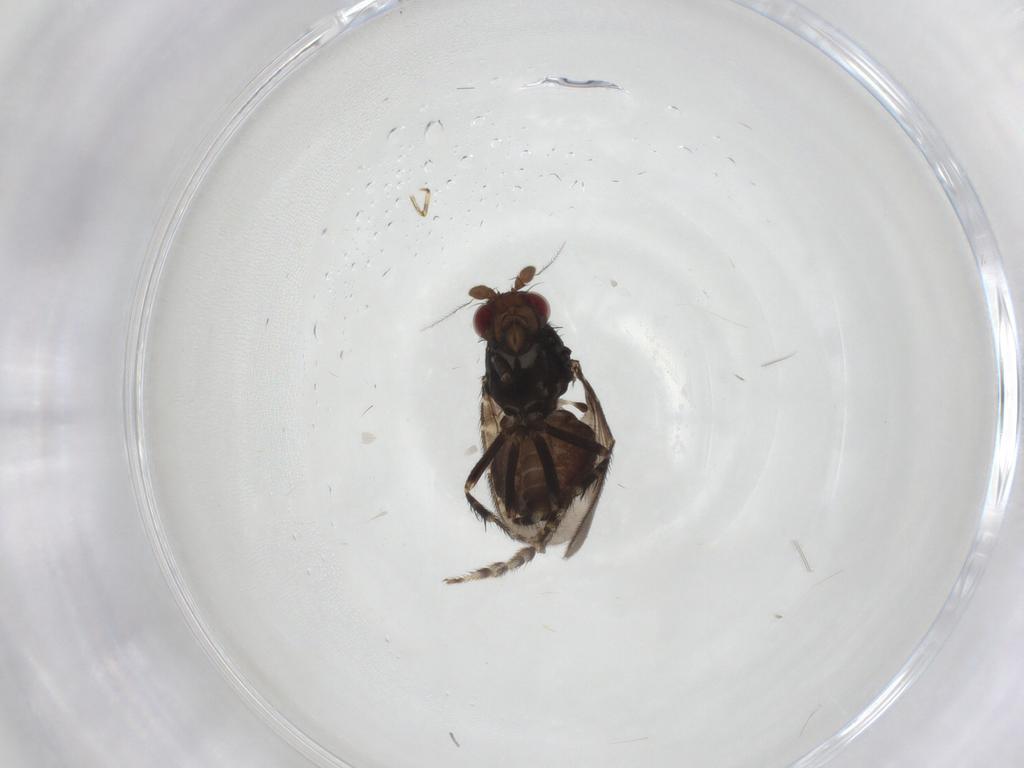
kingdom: Animalia
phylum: Arthropoda
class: Insecta
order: Diptera
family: Sphaeroceridae
